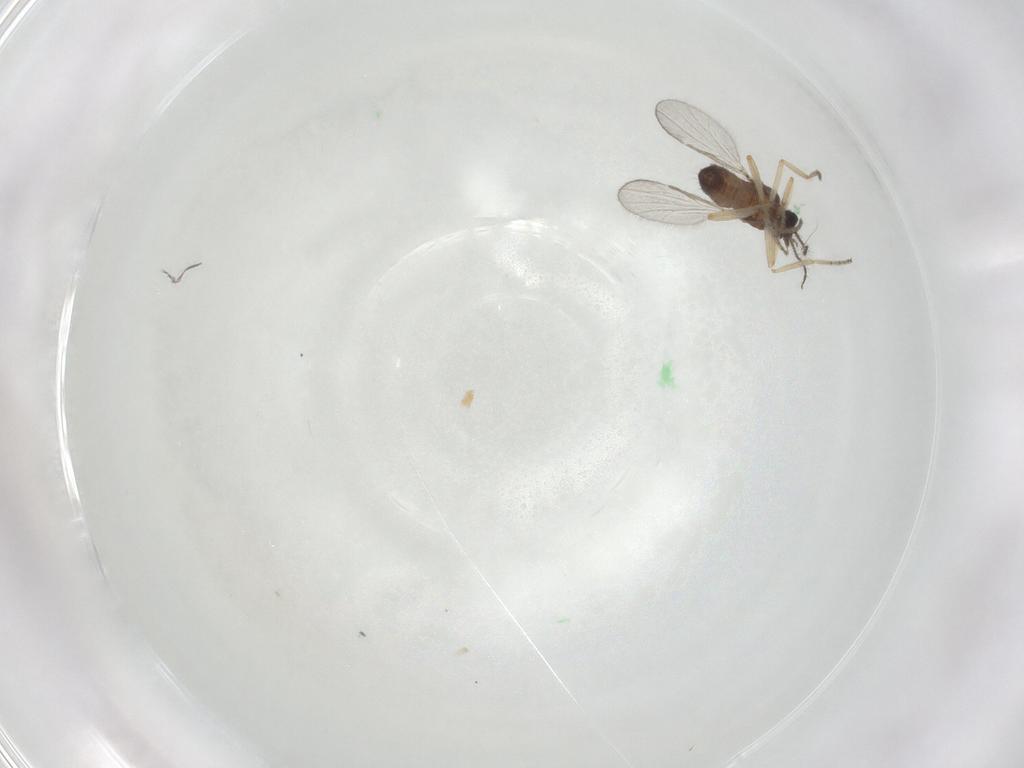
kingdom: Animalia
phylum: Arthropoda
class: Insecta
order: Diptera
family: Ceratopogonidae
